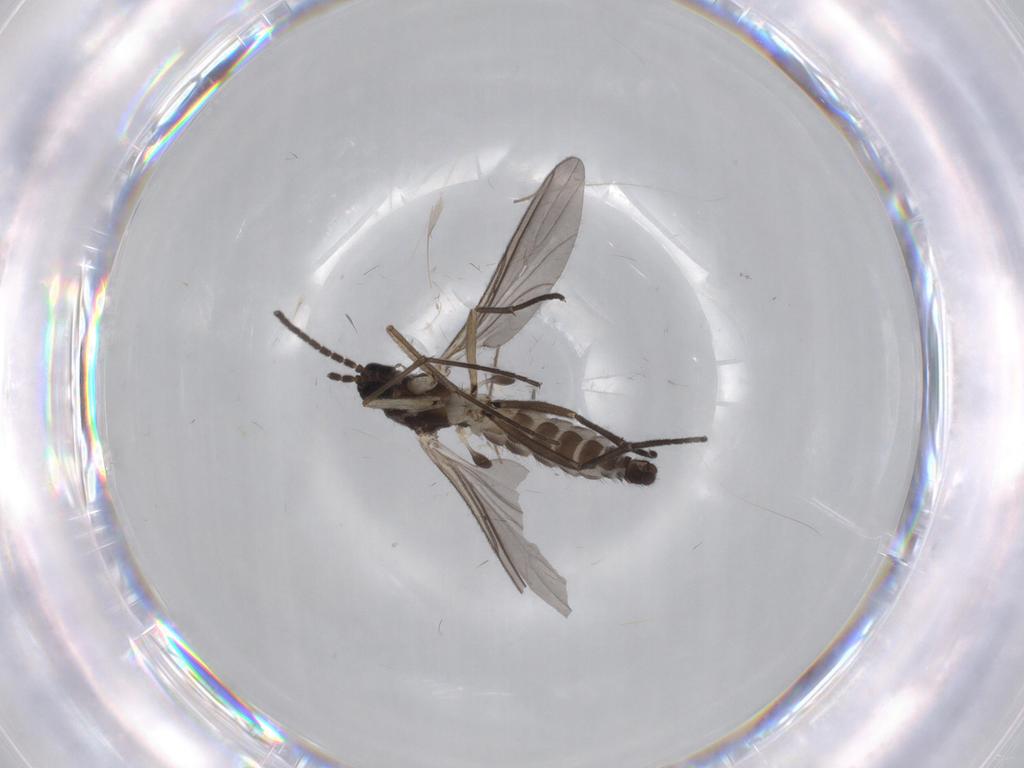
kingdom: Animalia
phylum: Arthropoda
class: Insecta
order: Diptera
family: Sciaridae
